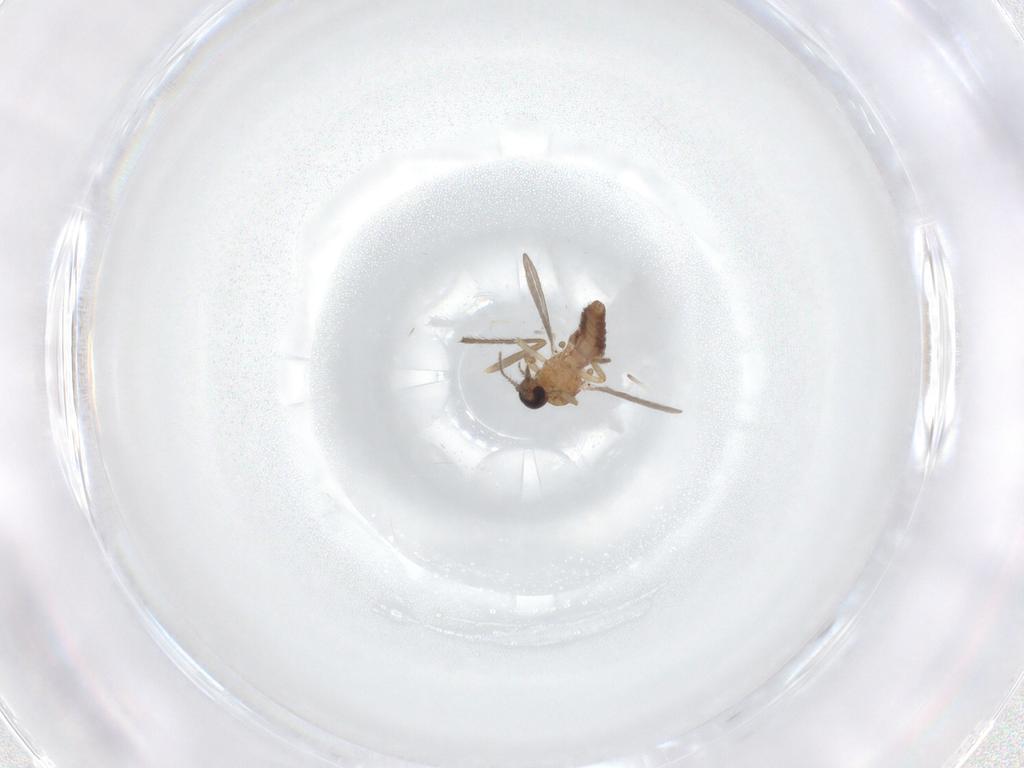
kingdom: Animalia
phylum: Arthropoda
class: Insecta
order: Diptera
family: Ceratopogonidae
